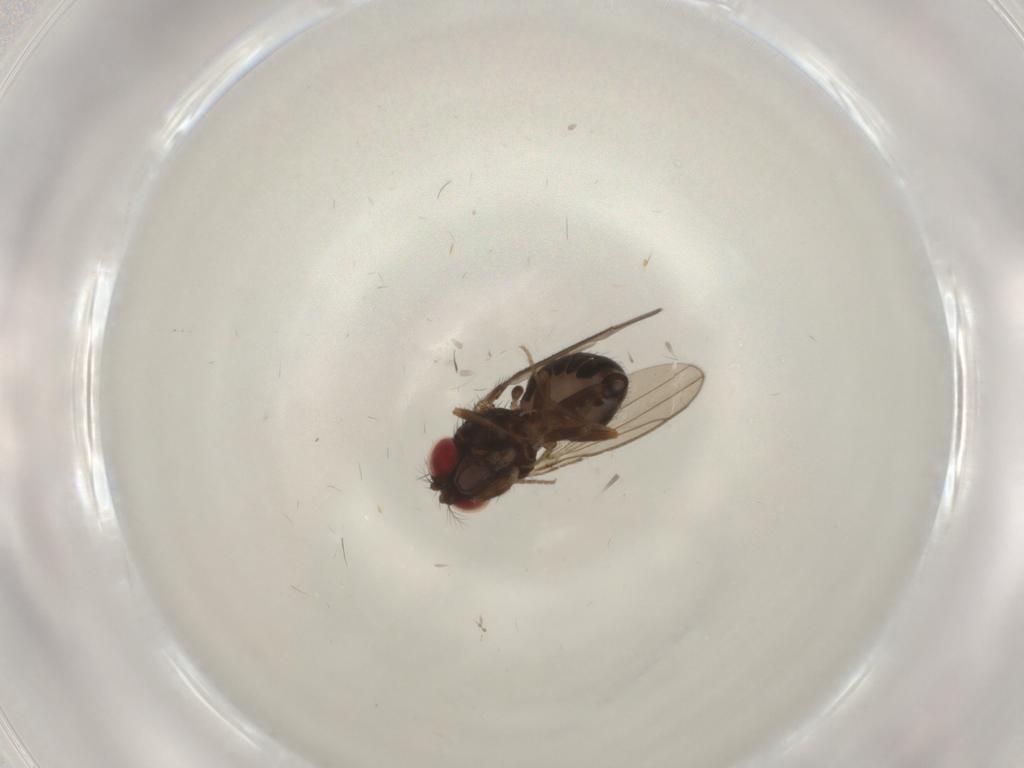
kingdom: Animalia
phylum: Arthropoda
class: Insecta
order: Diptera
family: Drosophilidae
